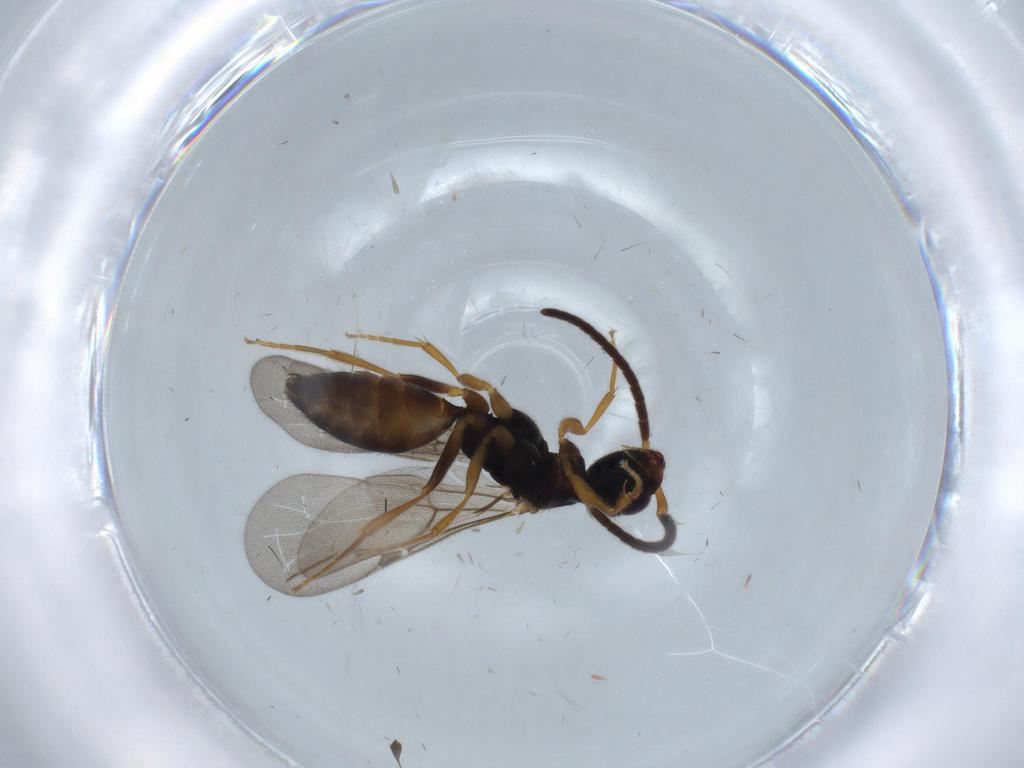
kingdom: Animalia
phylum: Arthropoda
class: Insecta
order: Hymenoptera
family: Bethylidae
